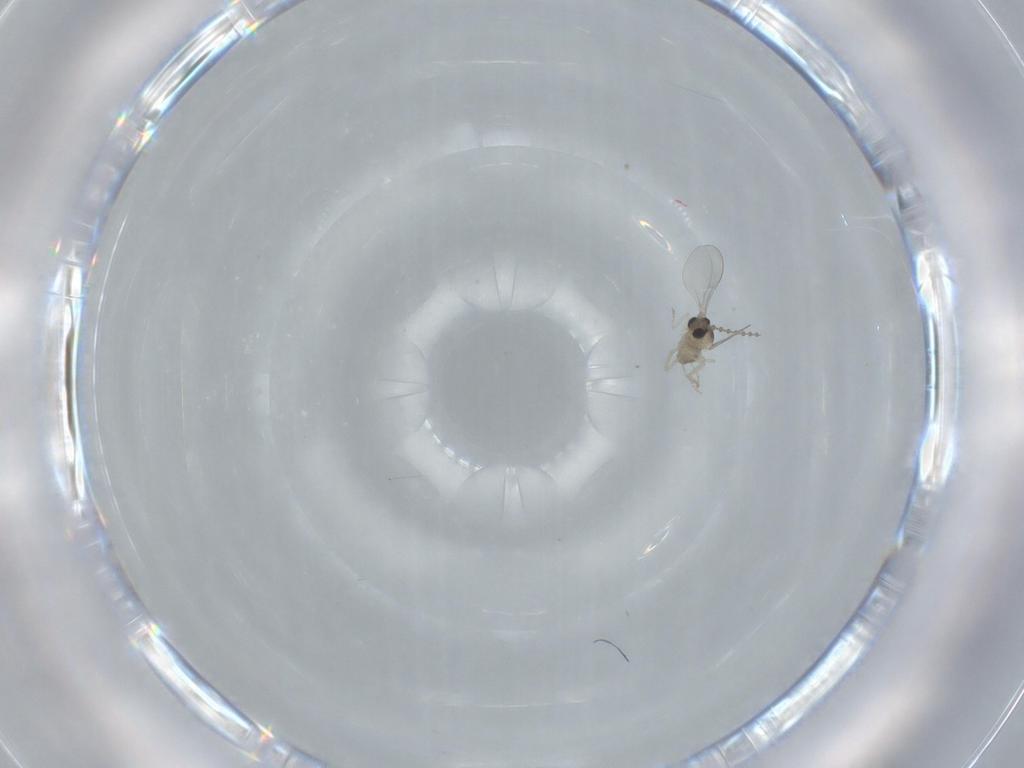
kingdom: Animalia
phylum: Arthropoda
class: Insecta
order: Diptera
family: Cecidomyiidae
